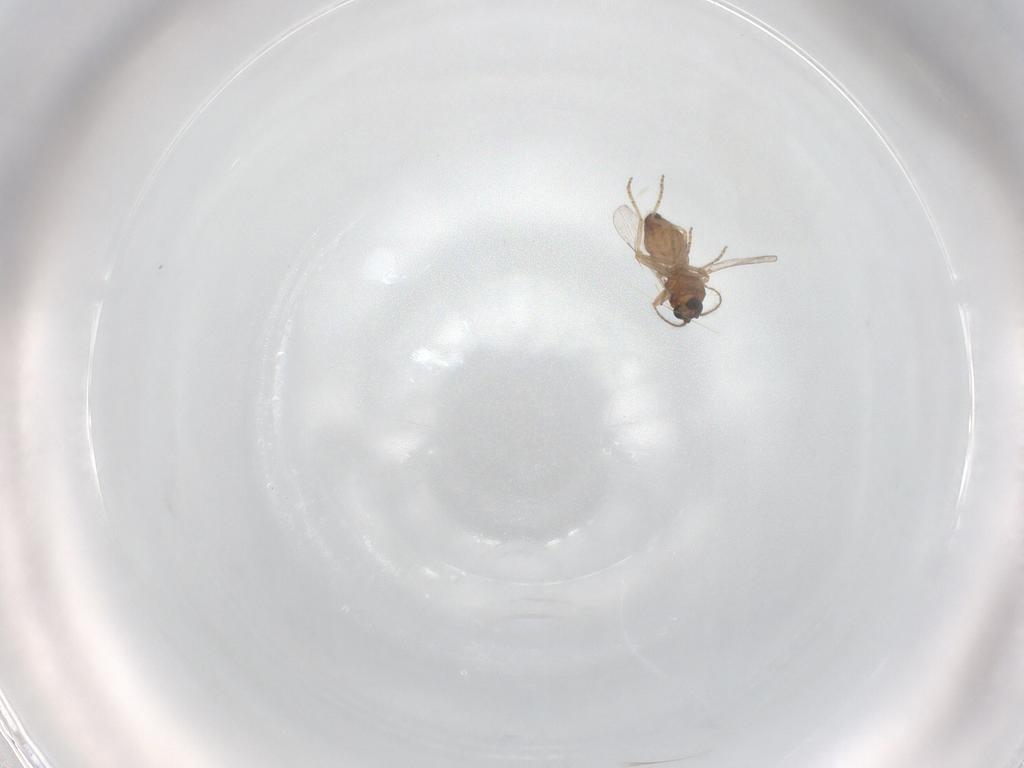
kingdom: Animalia
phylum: Arthropoda
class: Insecta
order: Diptera
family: Ceratopogonidae
